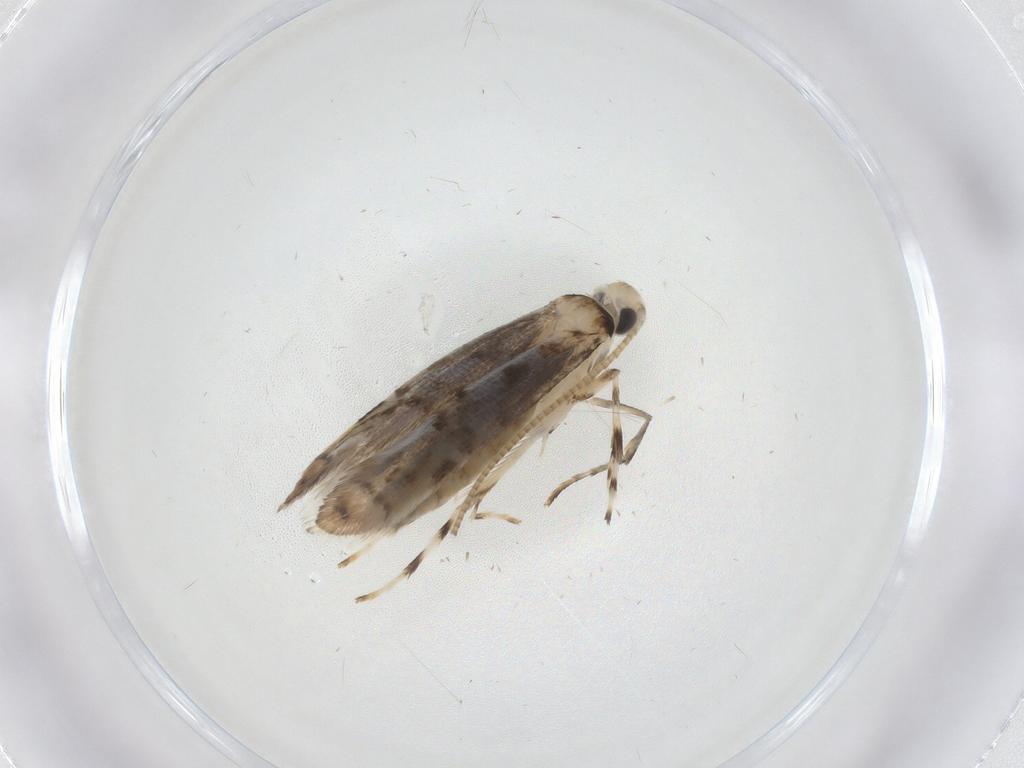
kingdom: Animalia
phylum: Arthropoda
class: Insecta
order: Lepidoptera
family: Gracillariidae
